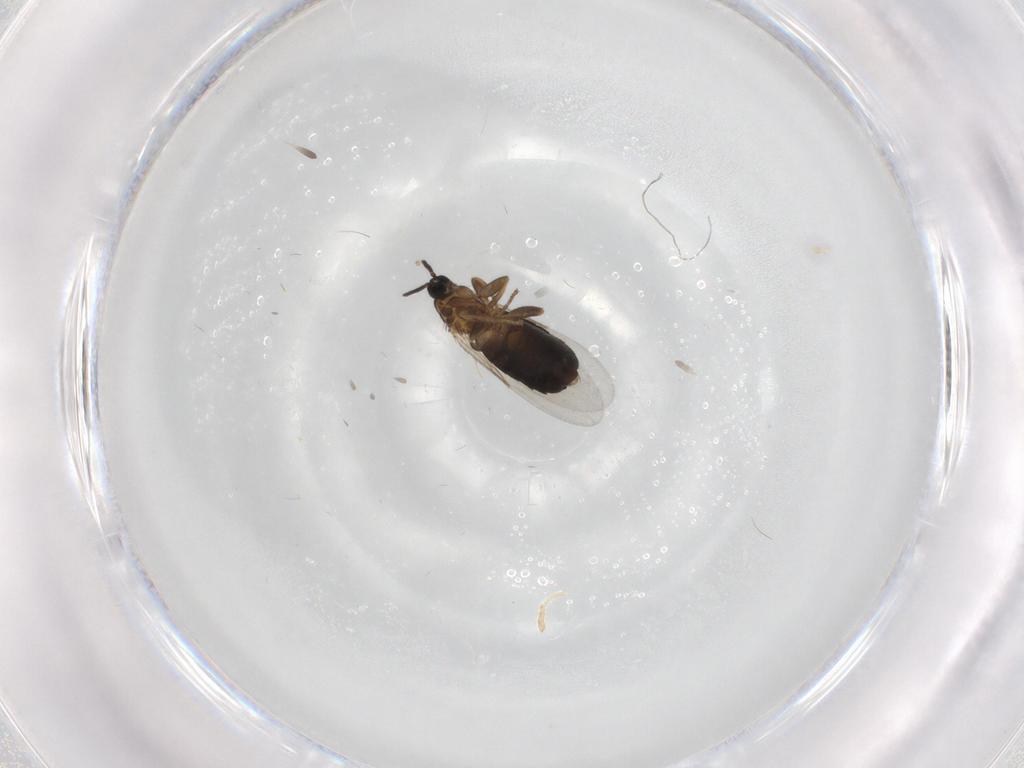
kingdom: Animalia
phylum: Arthropoda
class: Insecta
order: Diptera
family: Scatopsidae
